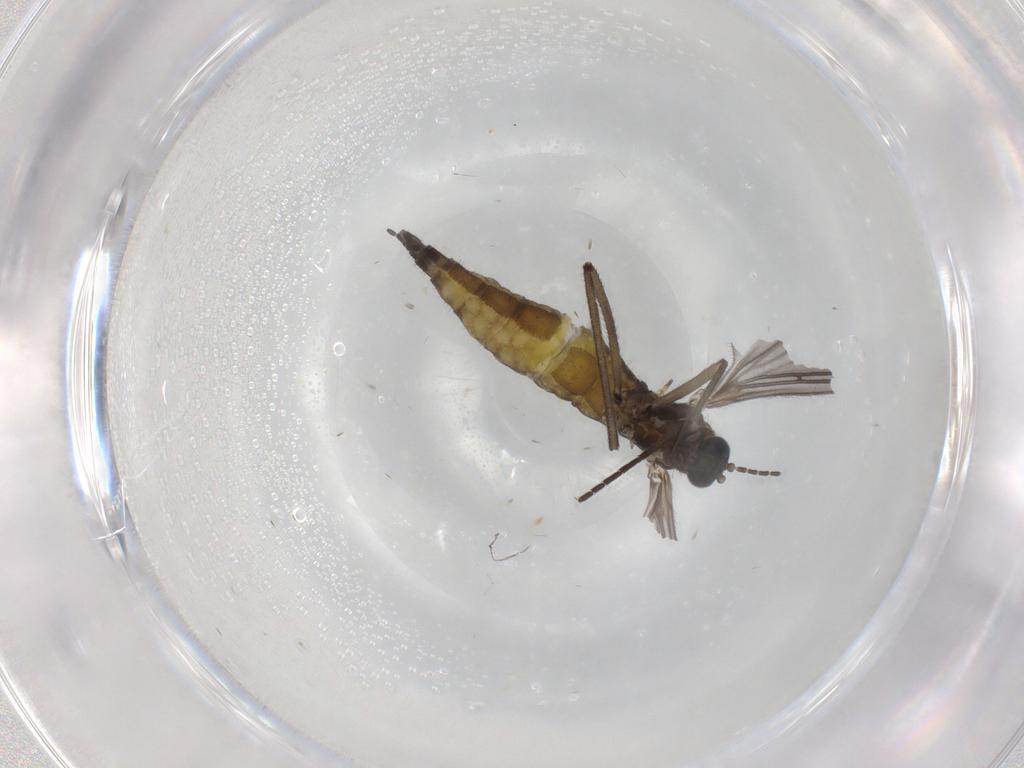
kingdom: Animalia
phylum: Arthropoda
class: Insecta
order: Diptera
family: Sciaridae
